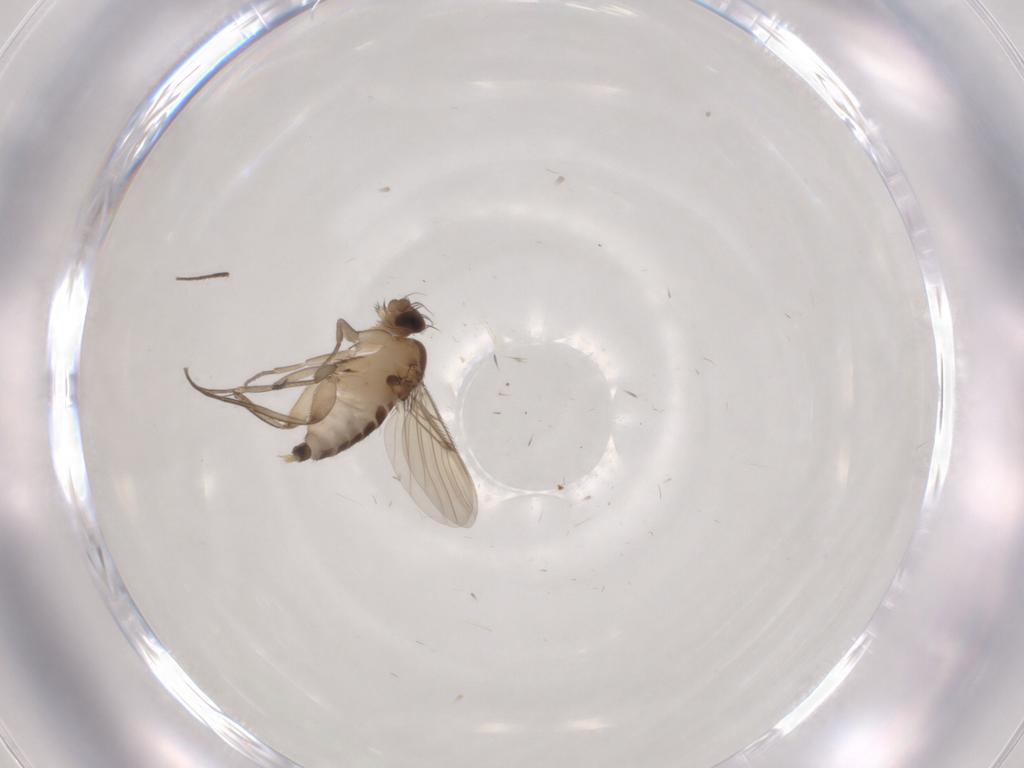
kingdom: Animalia
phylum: Arthropoda
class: Insecta
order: Diptera
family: Phoridae
